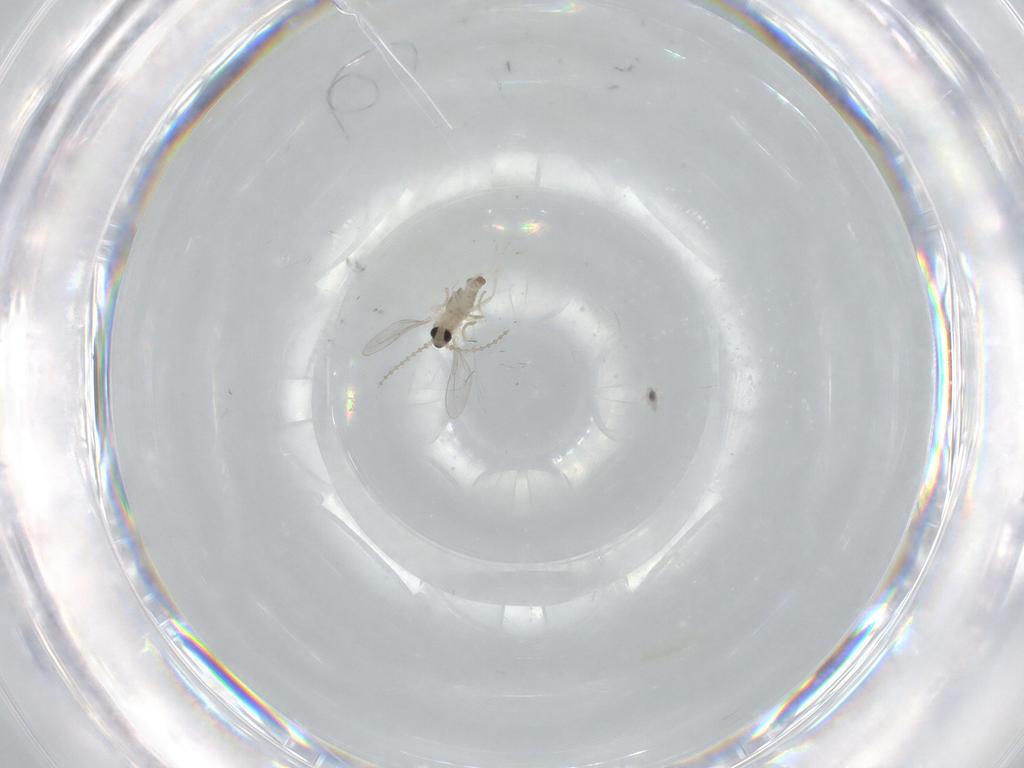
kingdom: Animalia
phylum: Arthropoda
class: Insecta
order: Diptera
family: Cecidomyiidae
